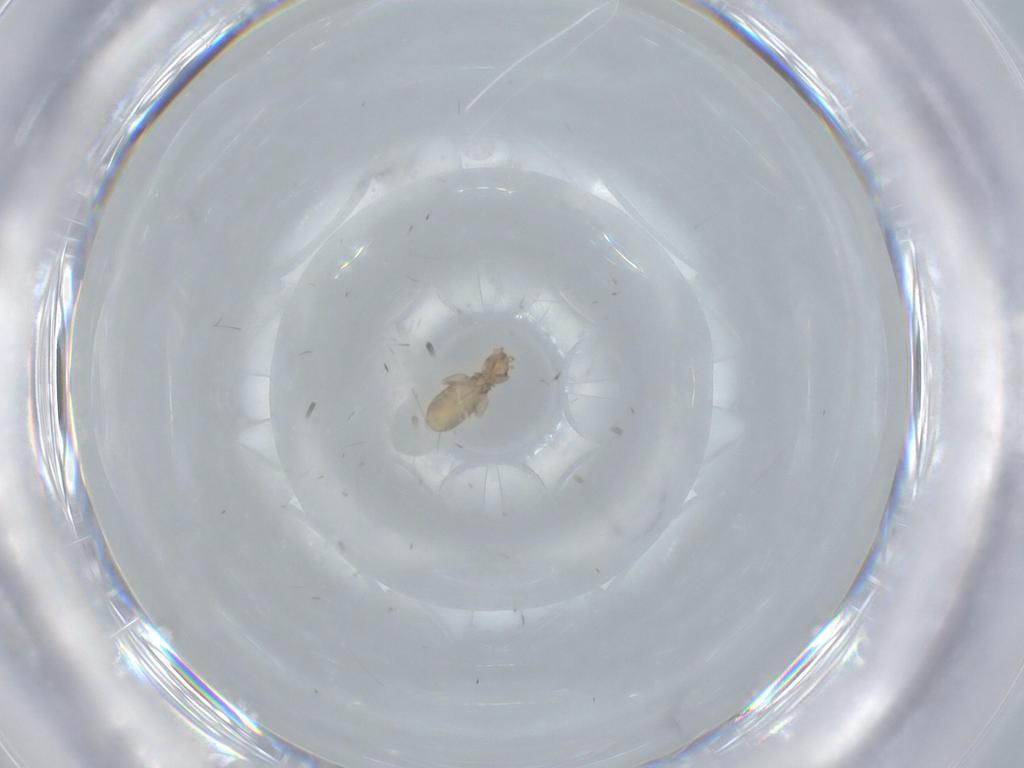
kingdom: Animalia
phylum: Arthropoda
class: Insecta
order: Psocodea
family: Liposcelididae
